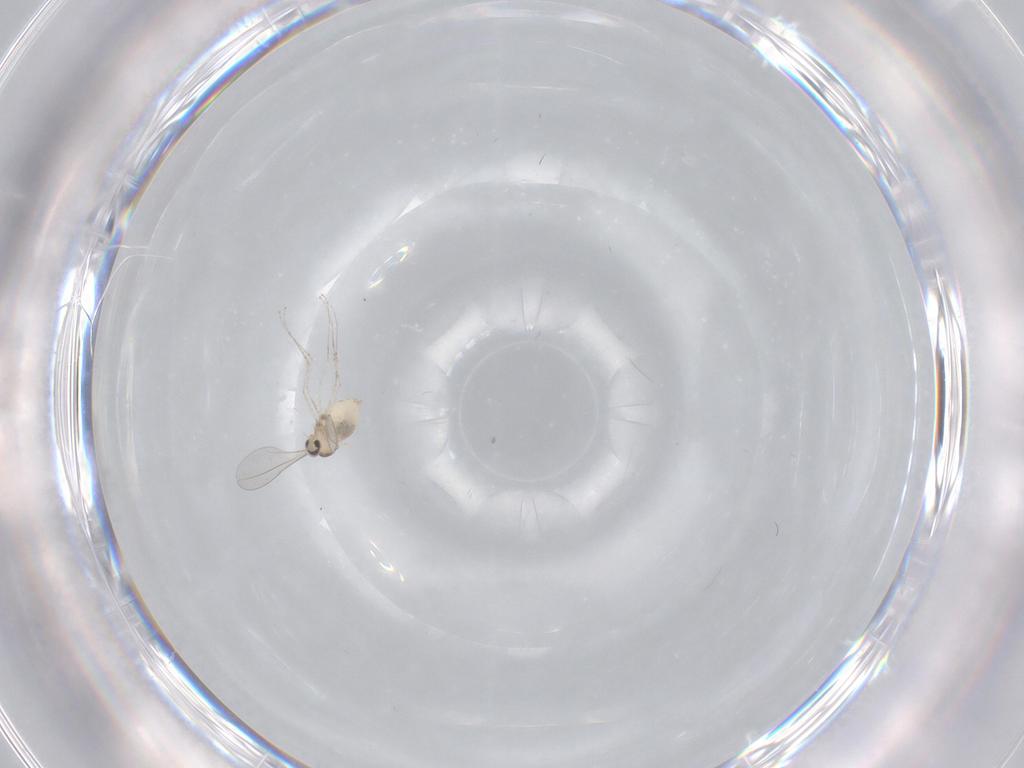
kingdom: Animalia
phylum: Arthropoda
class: Insecta
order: Diptera
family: Cecidomyiidae
